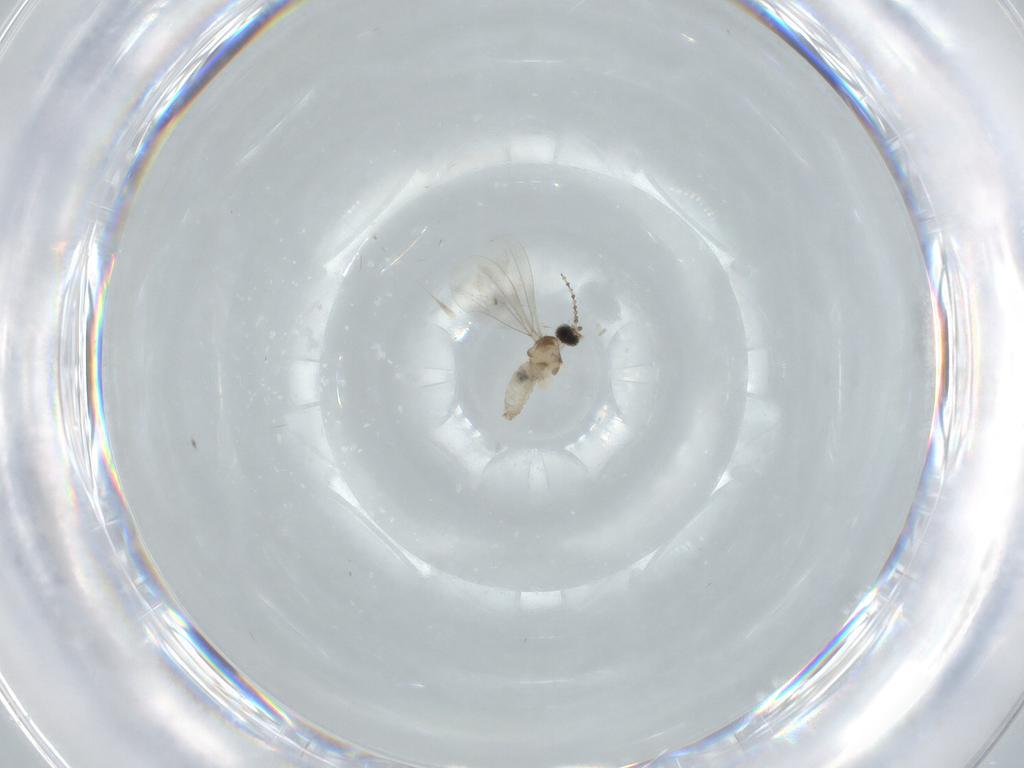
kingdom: Animalia
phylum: Arthropoda
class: Insecta
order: Diptera
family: Cecidomyiidae
